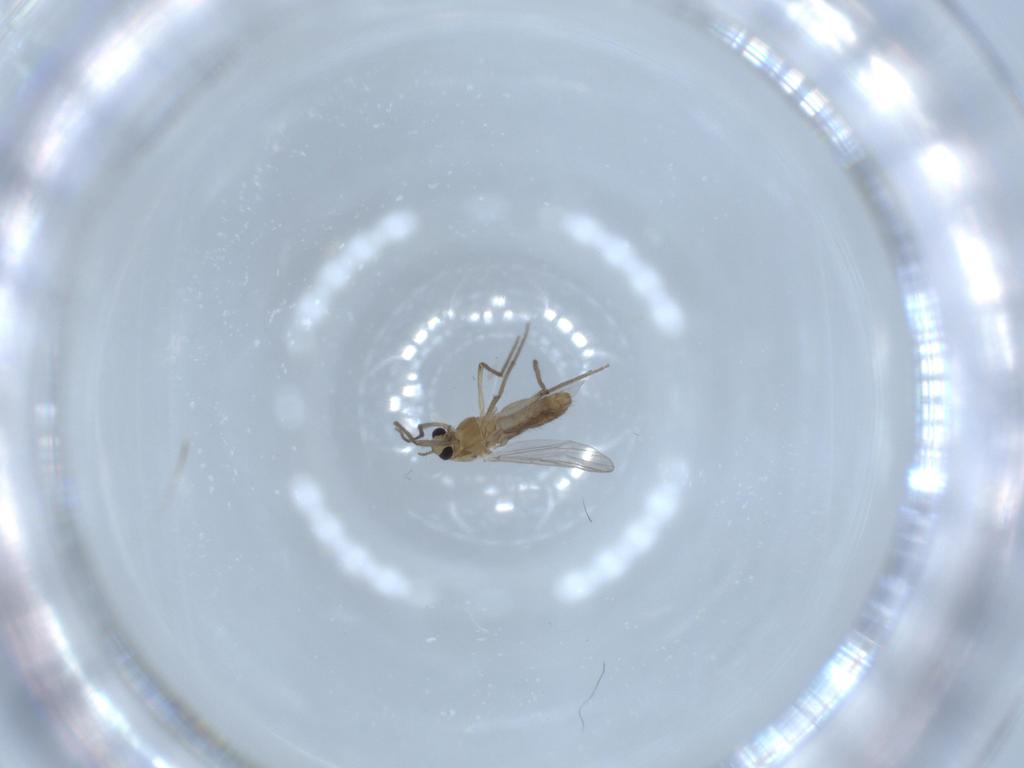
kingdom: Animalia
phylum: Arthropoda
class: Insecta
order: Diptera
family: Chironomidae
